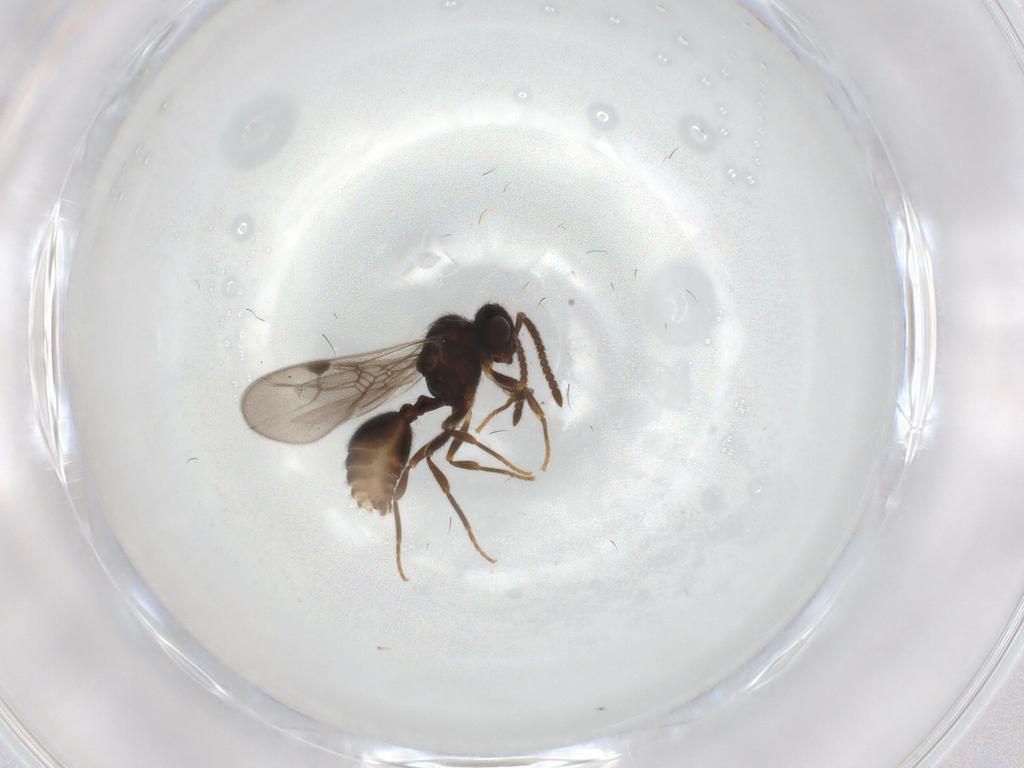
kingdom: Animalia
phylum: Arthropoda
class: Insecta
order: Hymenoptera
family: Formicidae
